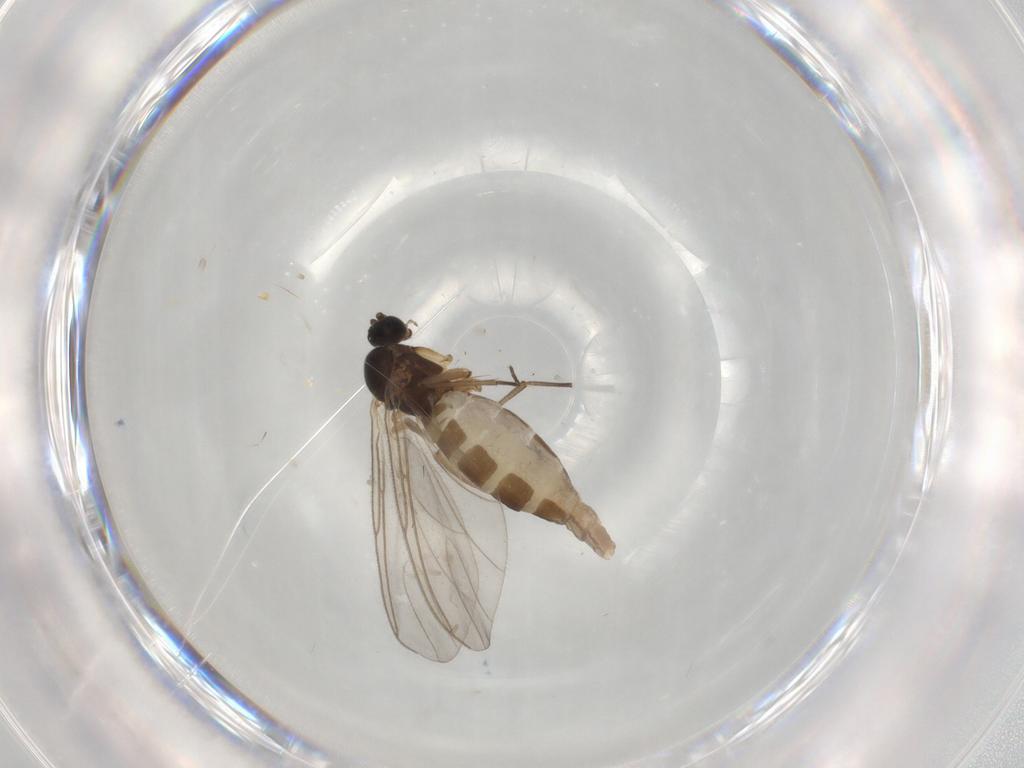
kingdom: Animalia
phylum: Arthropoda
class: Insecta
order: Diptera
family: Sciaridae
